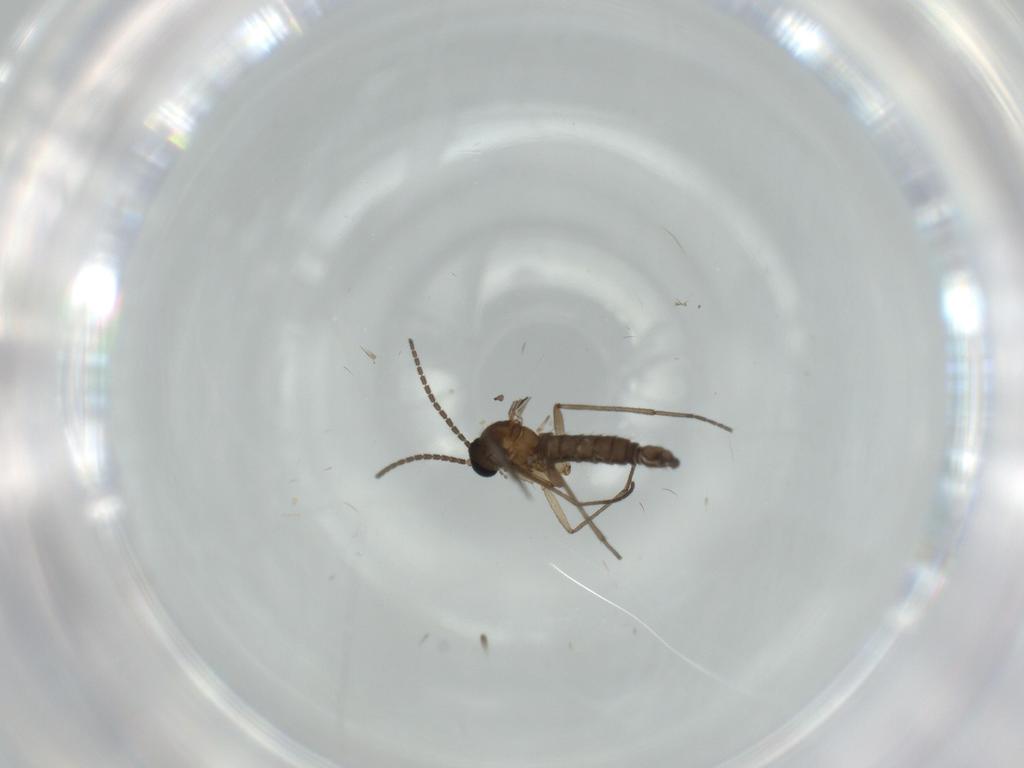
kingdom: Animalia
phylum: Arthropoda
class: Insecta
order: Diptera
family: Sciaridae
